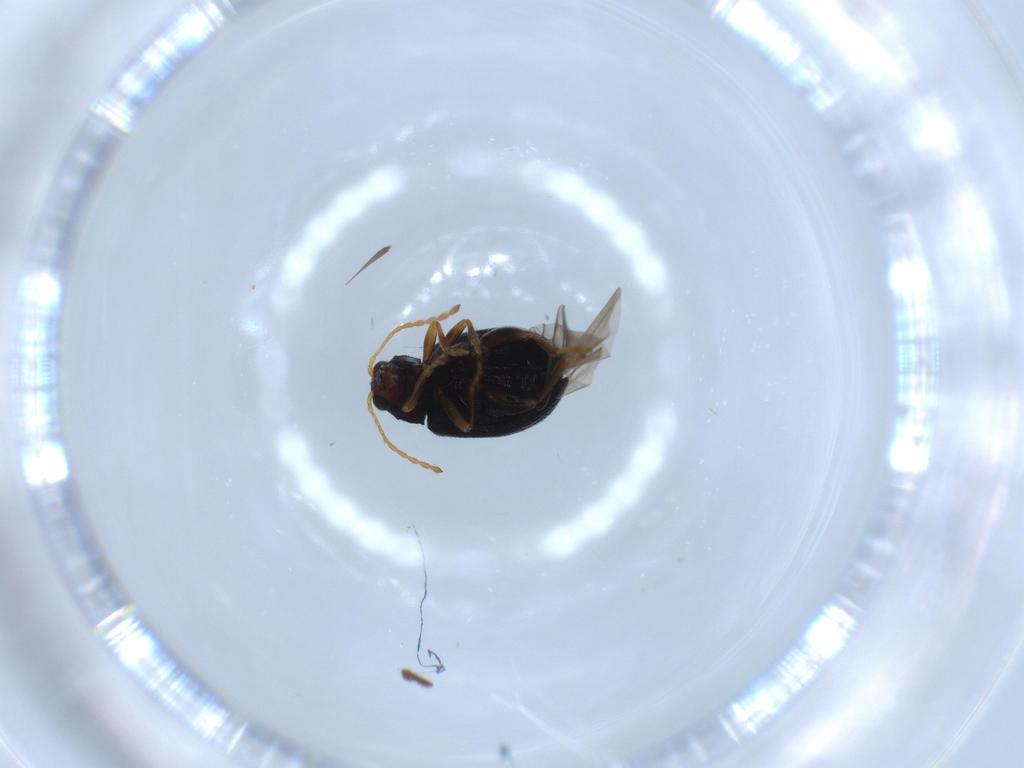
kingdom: Animalia
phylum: Arthropoda
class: Insecta
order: Coleoptera
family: Chrysomelidae
